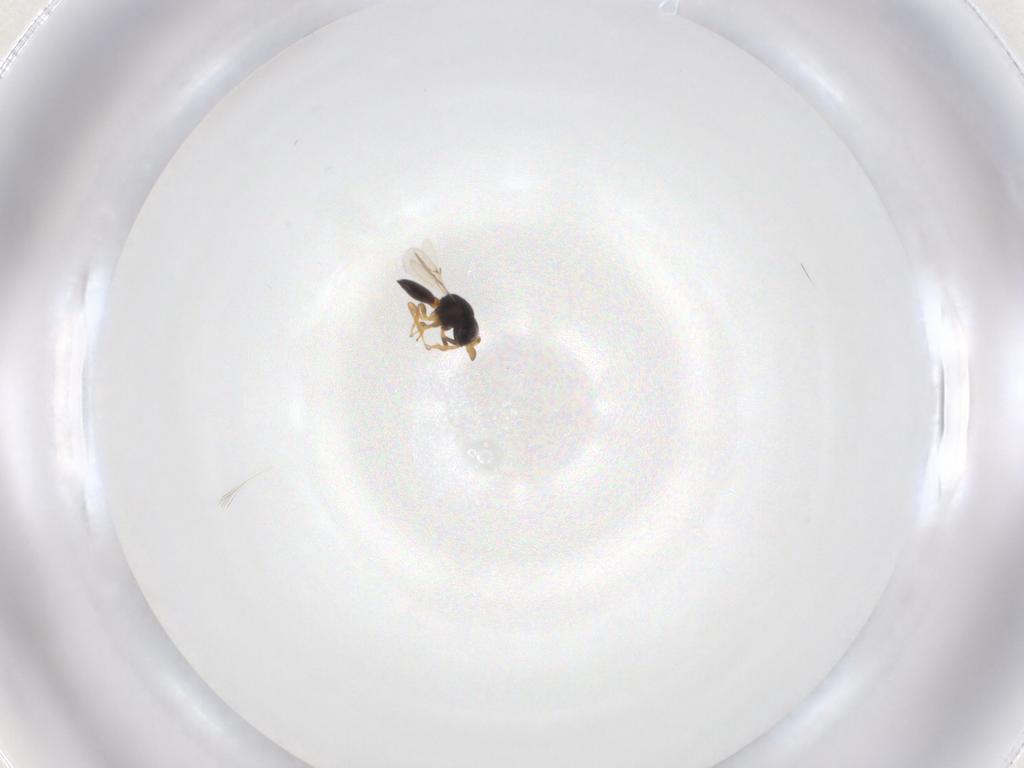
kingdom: Animalia
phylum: Arthropoda
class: Insecta
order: Hymenoptera
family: Scelionidae
